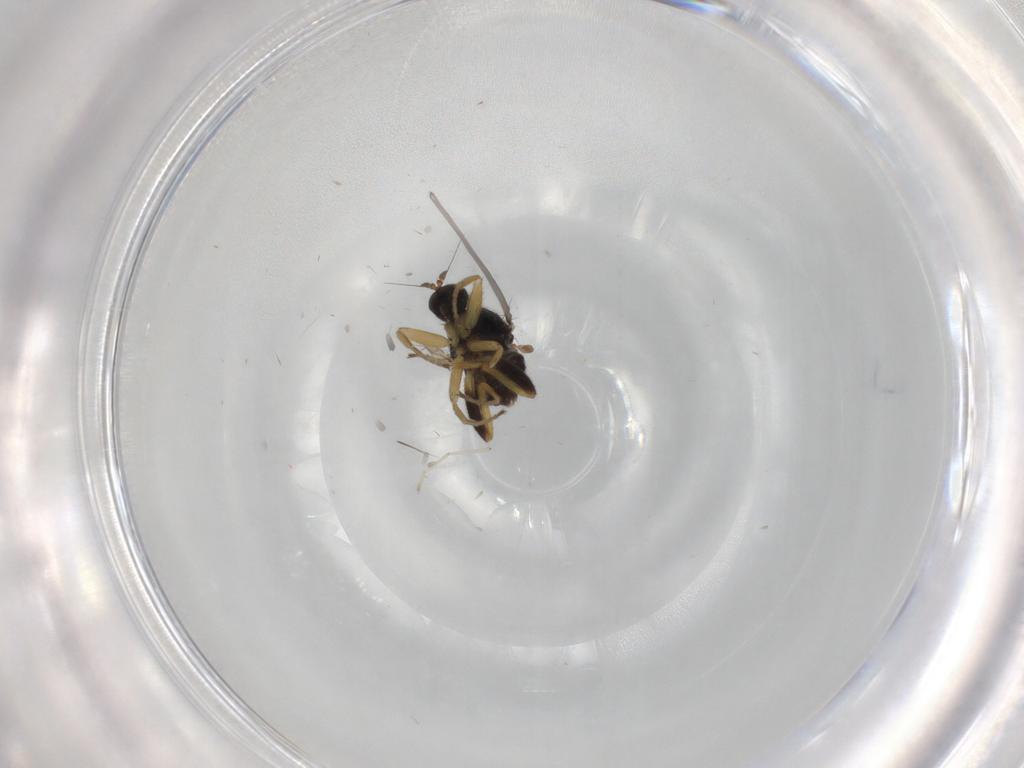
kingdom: Animalia
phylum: Arthropoda
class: Insecta
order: Diptera
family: Hybotidae
